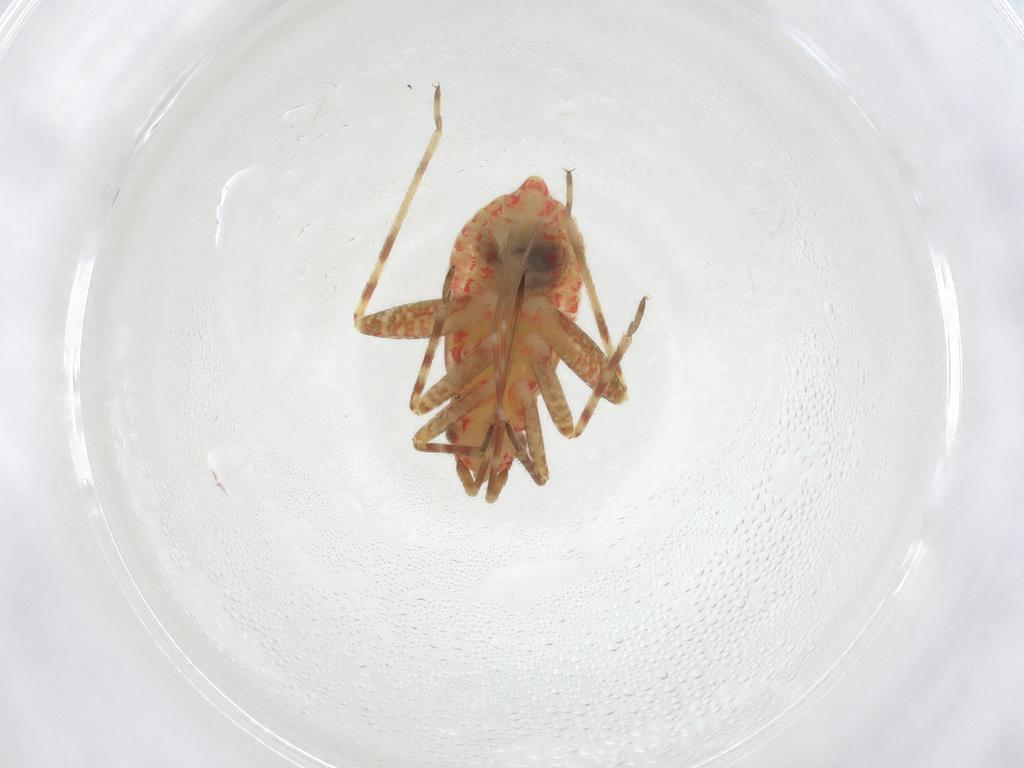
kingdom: Animalia
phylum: Arthropoda
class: Insecta
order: Hemiptera
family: Miridae
